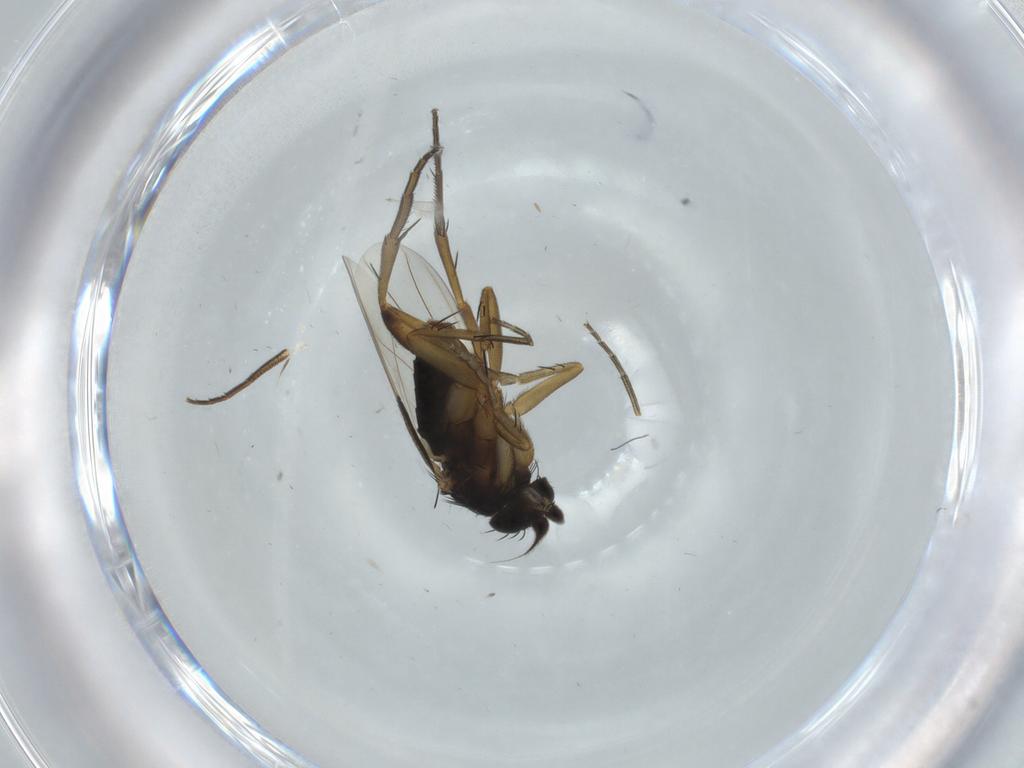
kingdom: Animalia
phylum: Arthropoda
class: Insecta
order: Diptera
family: Phoridae
